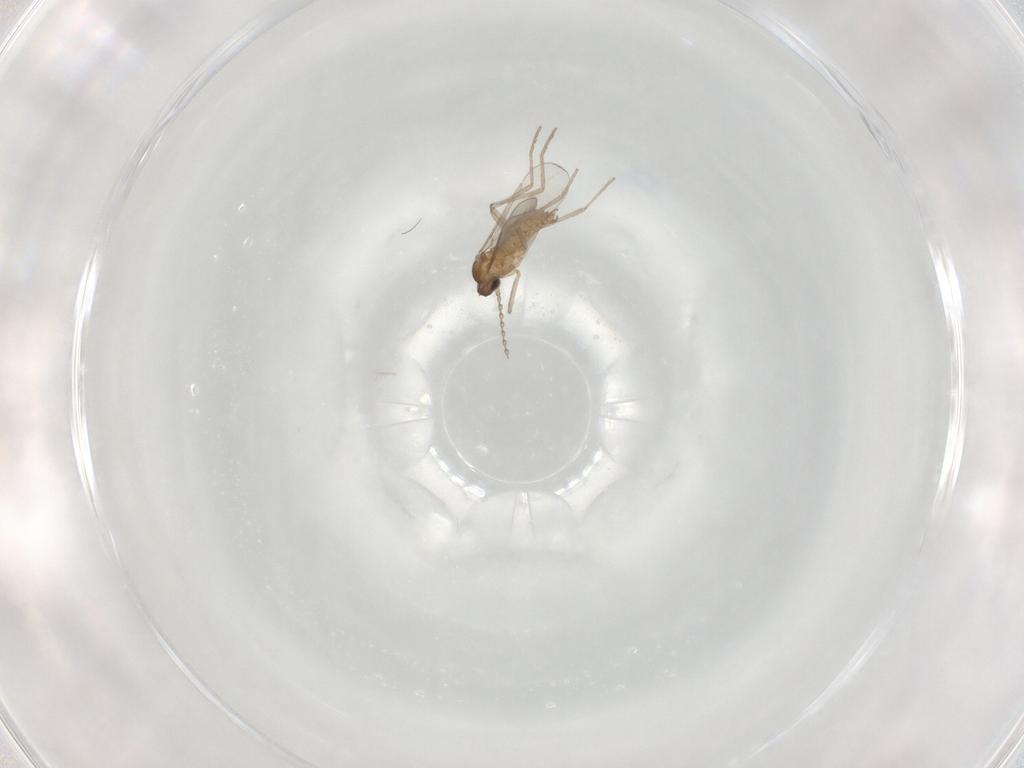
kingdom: Animalia
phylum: Arthropoda
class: Insecta
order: Diptera
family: Cecidomyiidae
